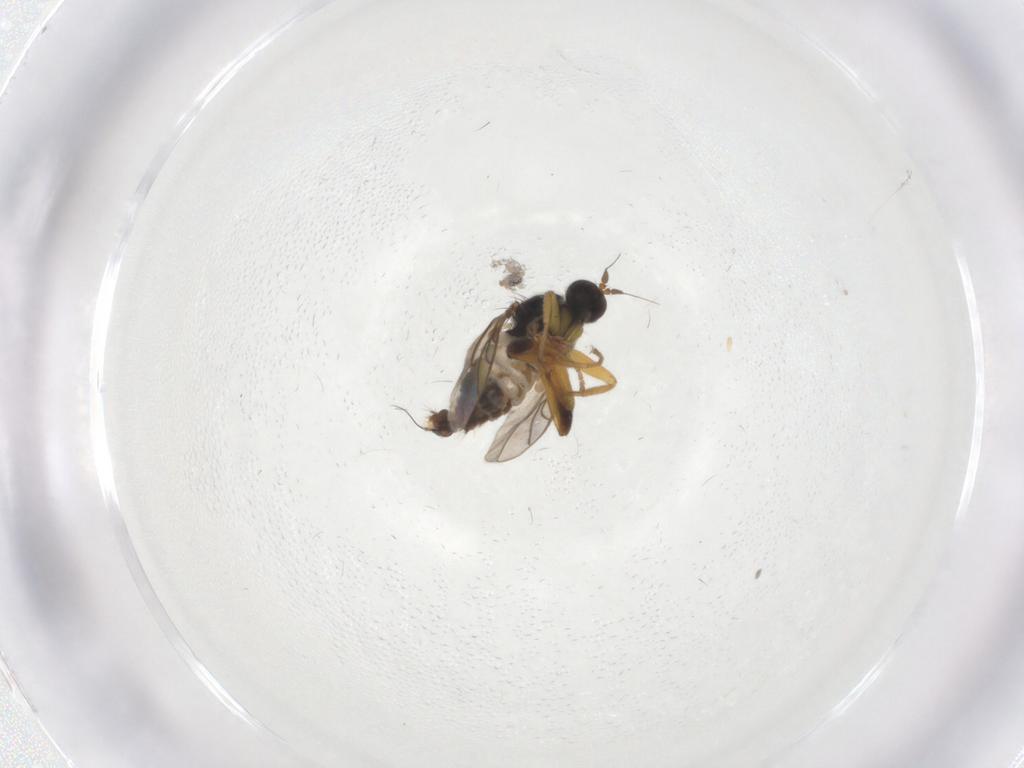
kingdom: Animalia
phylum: Arthropoda
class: Insecta
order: Diptera
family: Hybotidae
